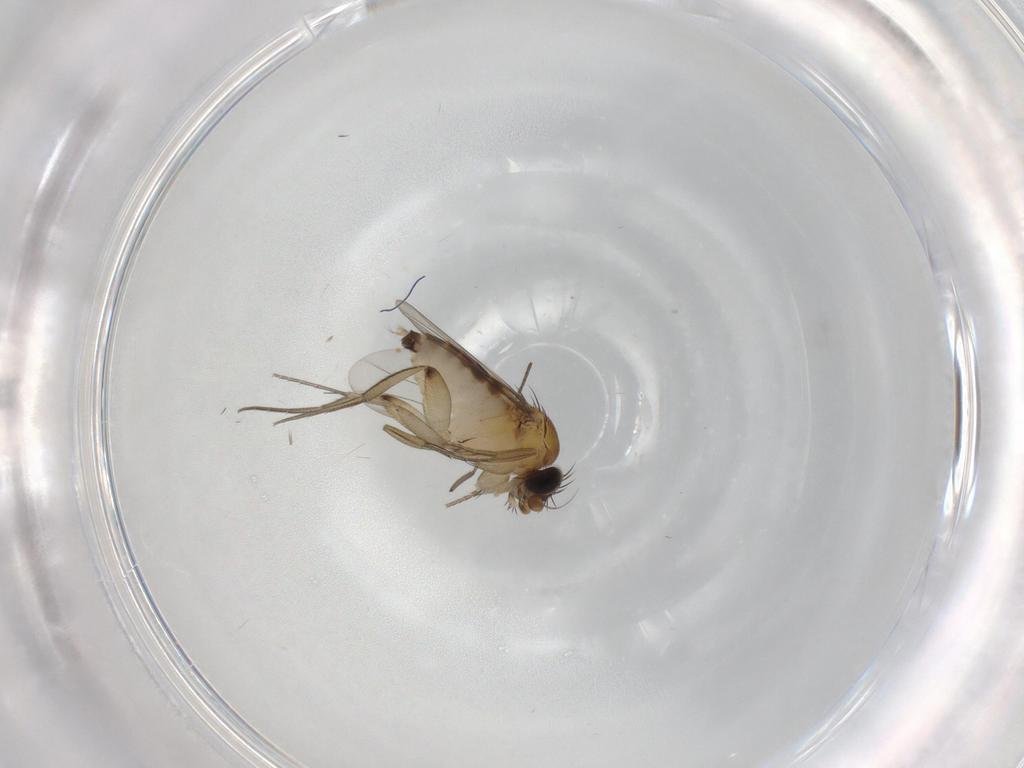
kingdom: Animalia
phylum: Arthropoda
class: Insecta
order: Diptera
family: Phoridae
